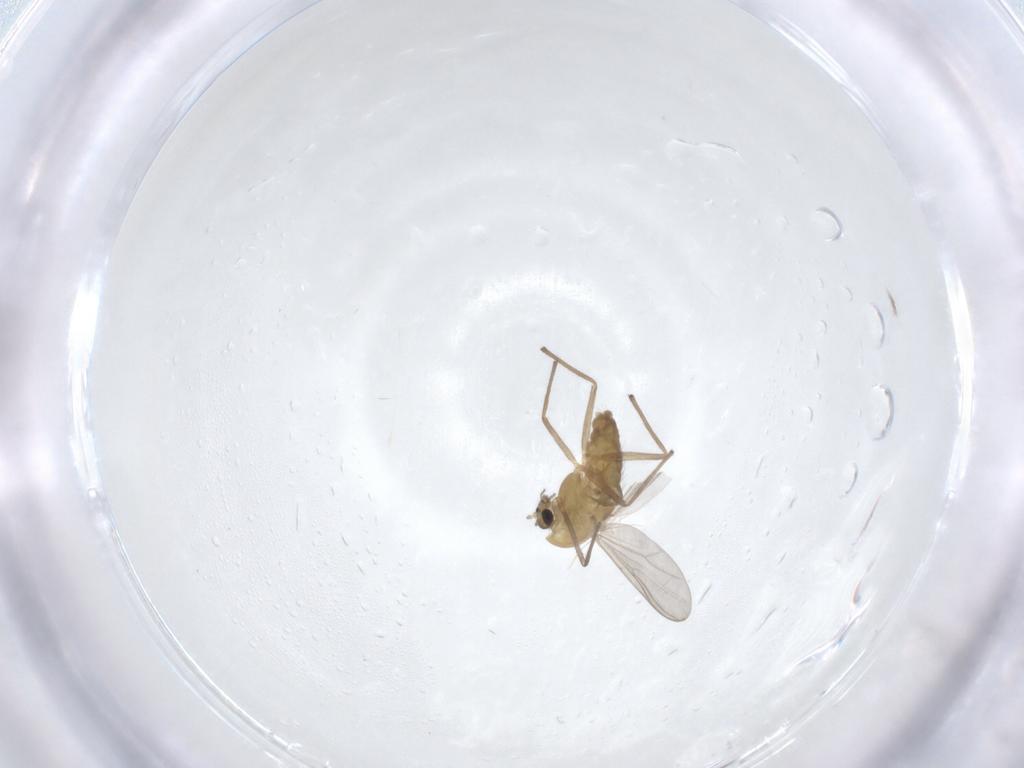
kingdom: Animalia
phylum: Arthropoda
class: Insecta
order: Diptera
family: Chironomidae
